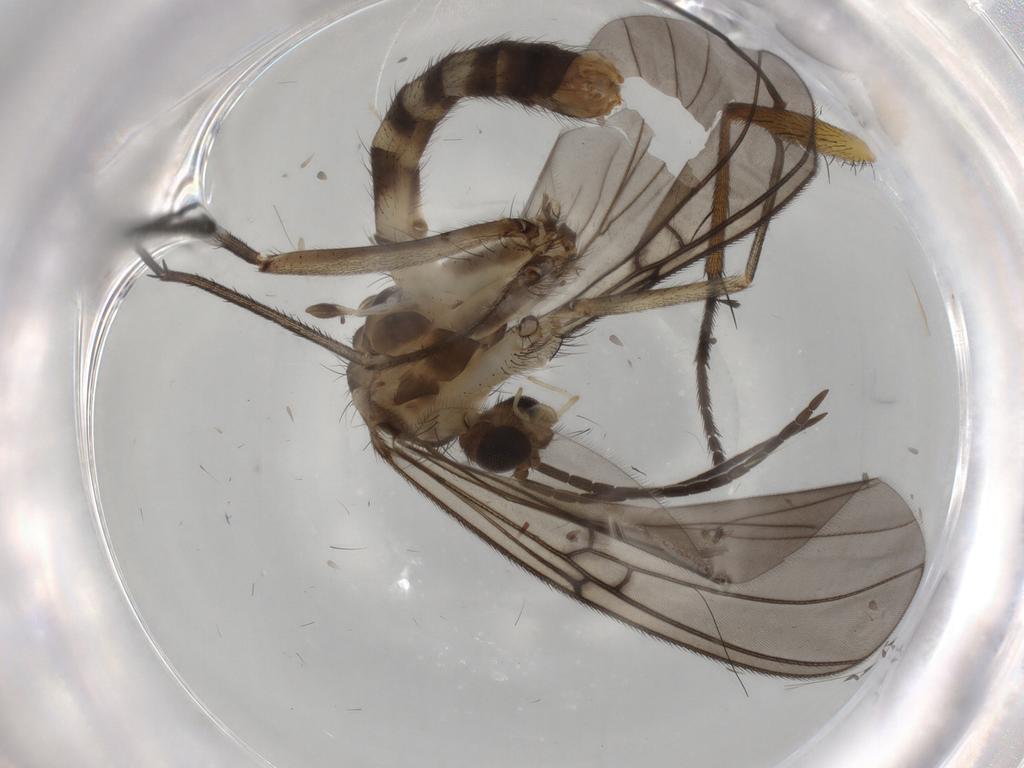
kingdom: Animalia
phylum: Arthropoda
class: Insecta
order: Diptera
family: Mycetophilidae
